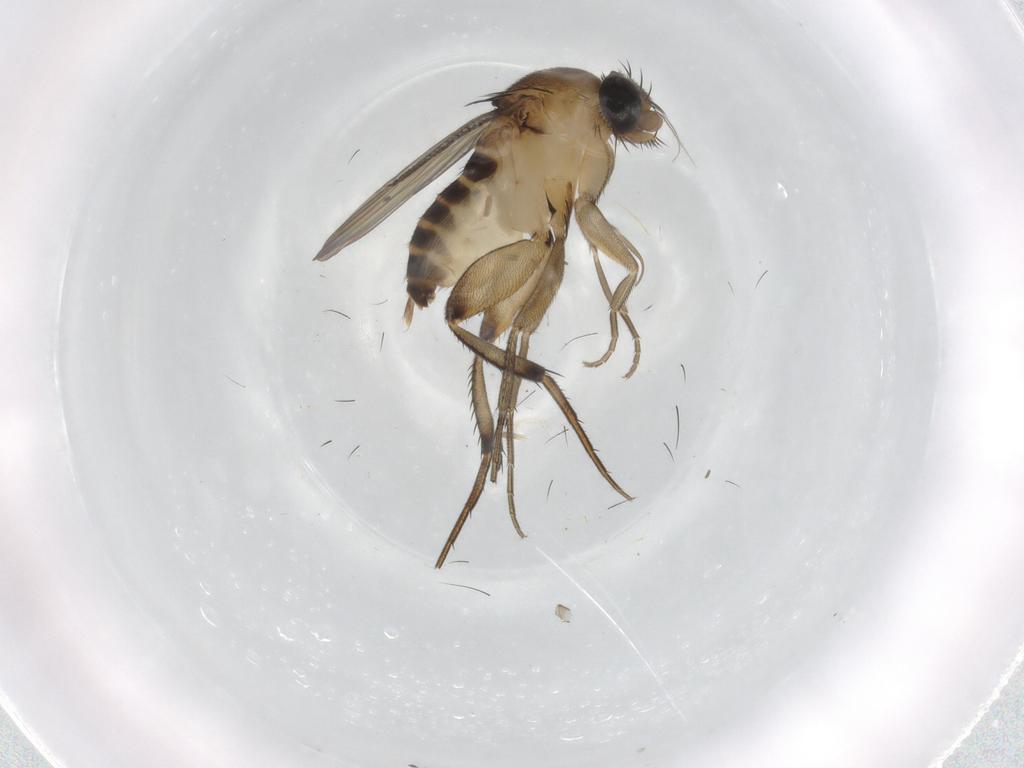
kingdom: Animalia
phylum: Arthropoda
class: Insecta
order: Diptera
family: Phoridae
